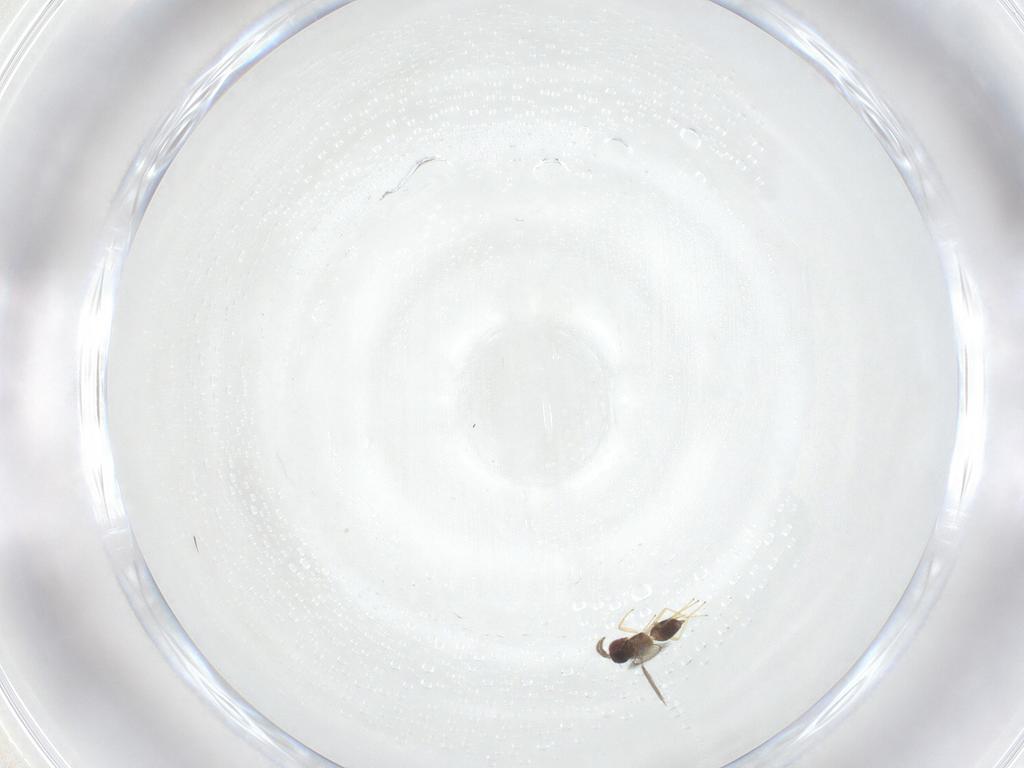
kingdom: Animalia
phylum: Arthropoda
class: Insecta
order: Hymenoptera
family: Eulophidae
